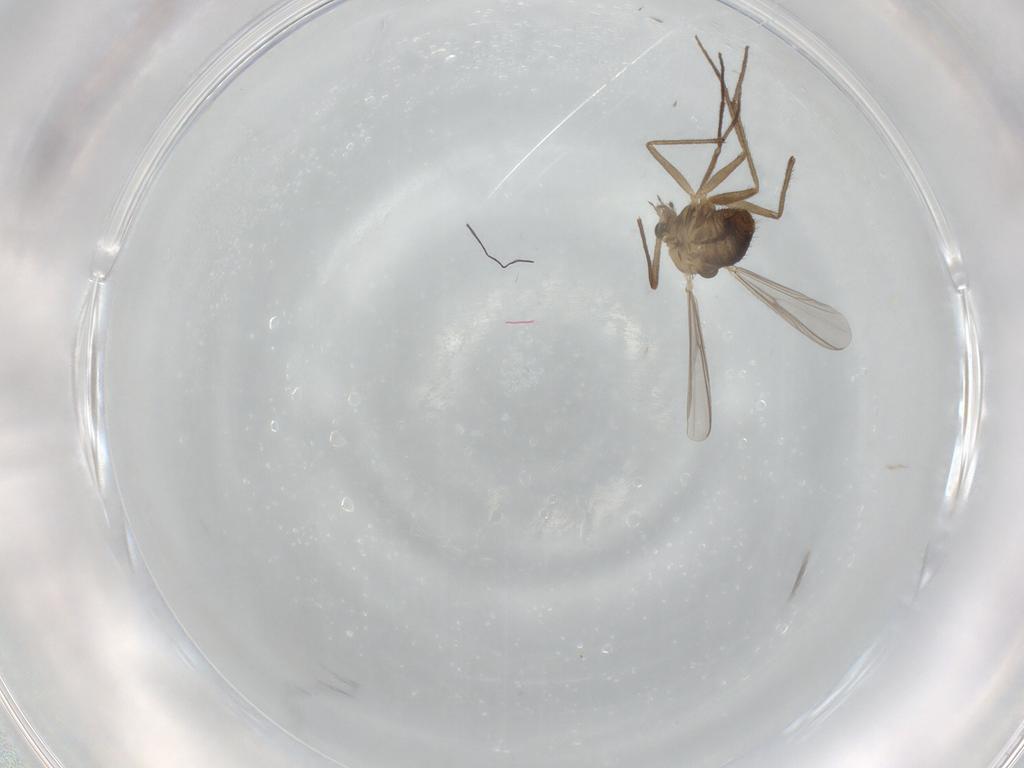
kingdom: Animalia
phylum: Arthropoda
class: Insecta
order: Diptera
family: Chironomidae
